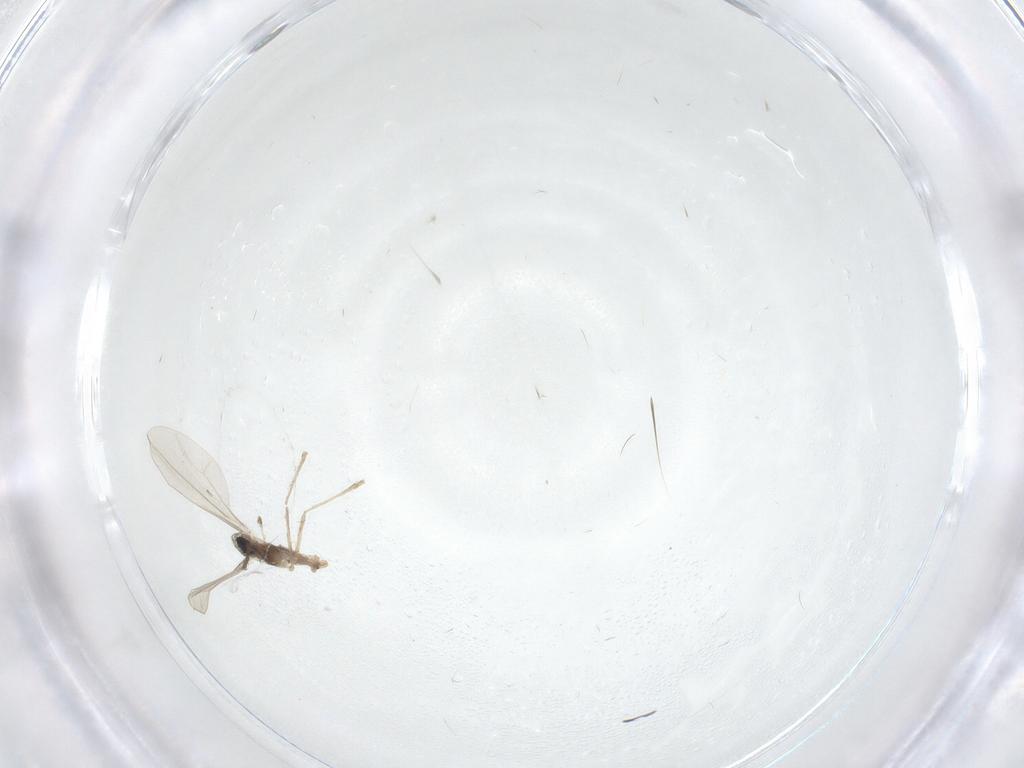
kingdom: Animalia
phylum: Arthropoda
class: Insecta
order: Diptera
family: Cecidomyiidae
